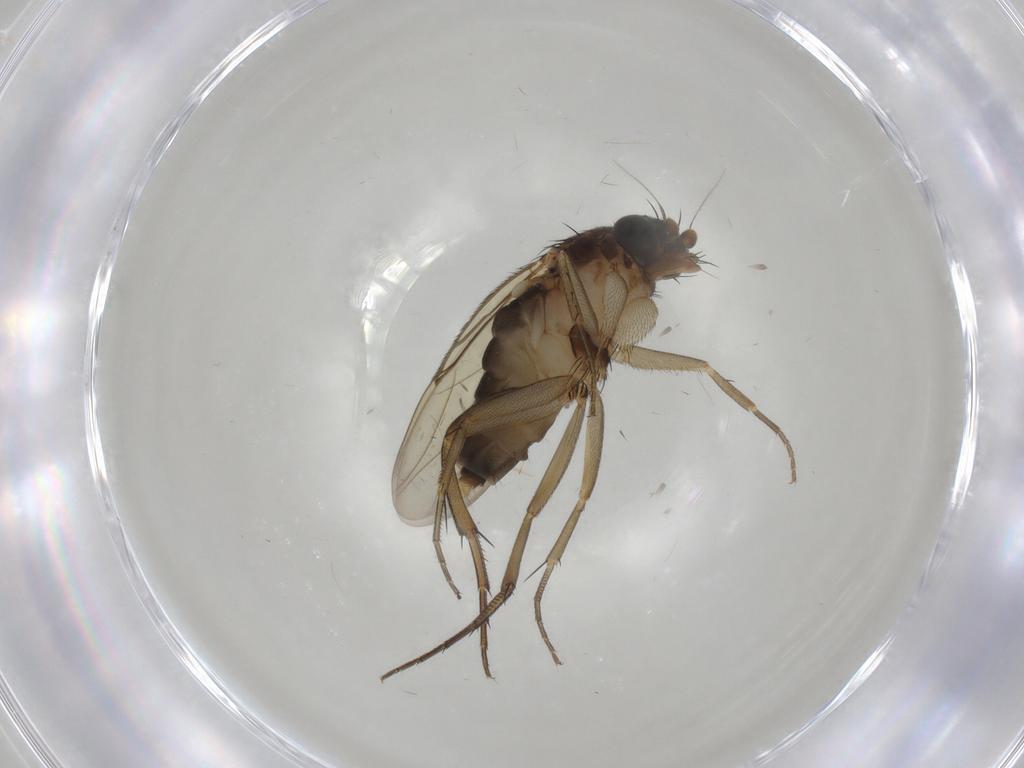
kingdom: Animalia
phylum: Arthropoda
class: Insecta
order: Diptera
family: Phoridae
